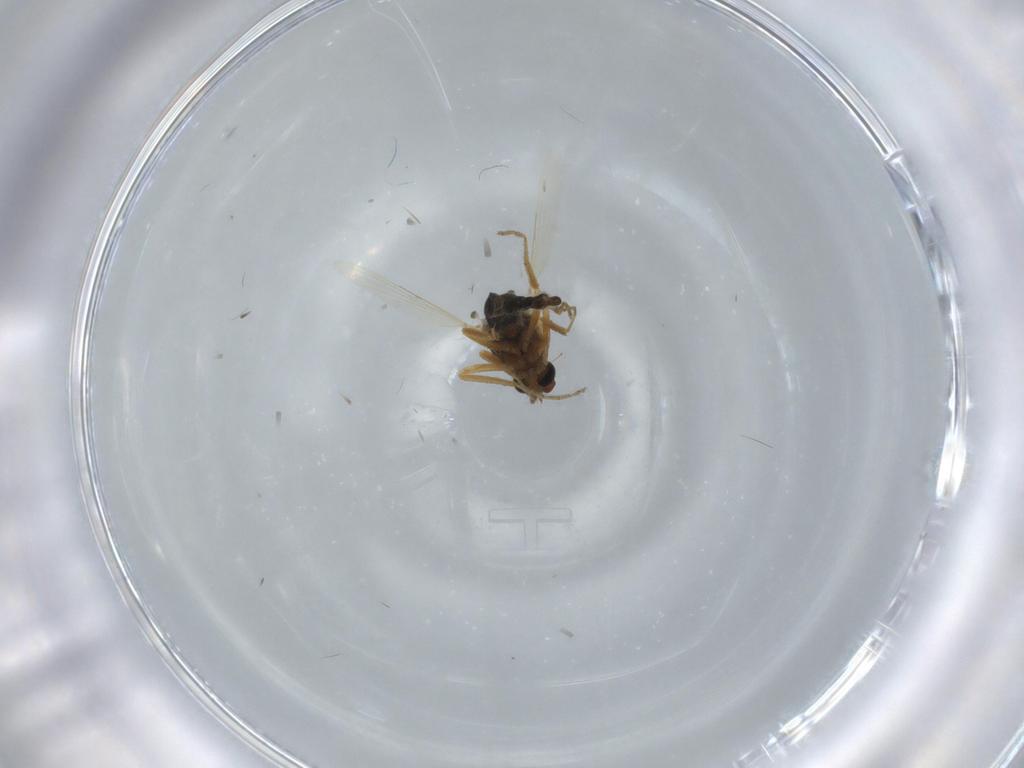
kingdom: Animalia
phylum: Arthropoda
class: Insecta
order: Diptera
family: Ceratopogonidae
